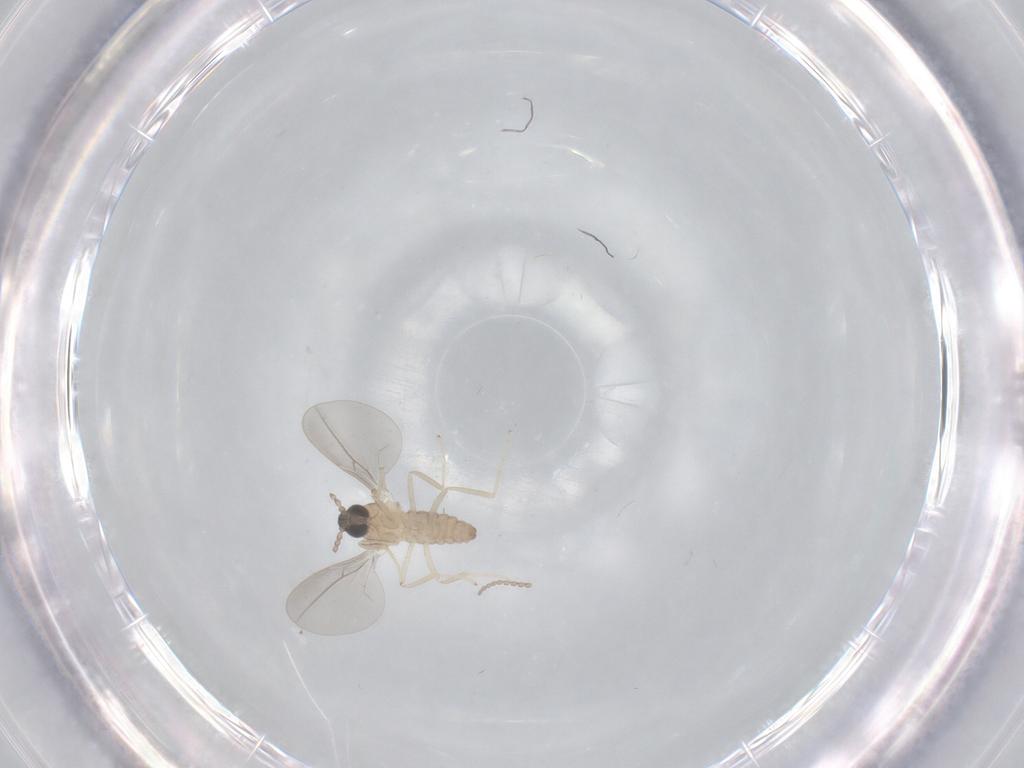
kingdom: Animalia
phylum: Arthropoda
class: Insecta
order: Diptera
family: Cecidomyiidae
